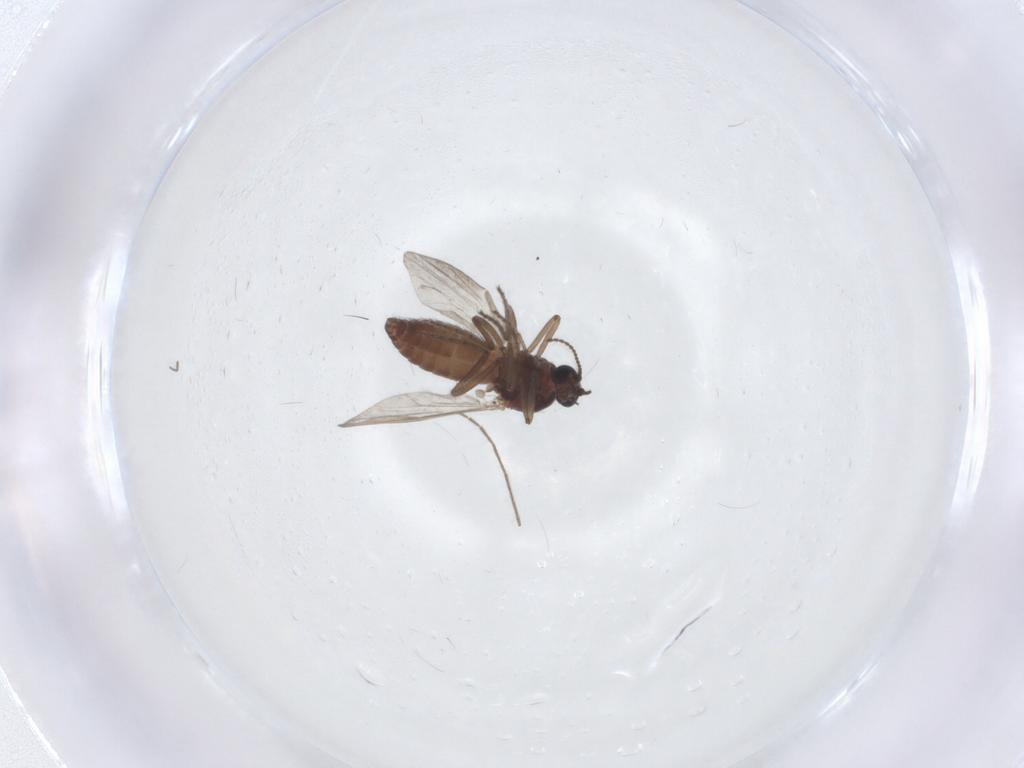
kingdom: Animalia
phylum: Arthropoda
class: Insecta
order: Diptera
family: Ceratopogonidae
